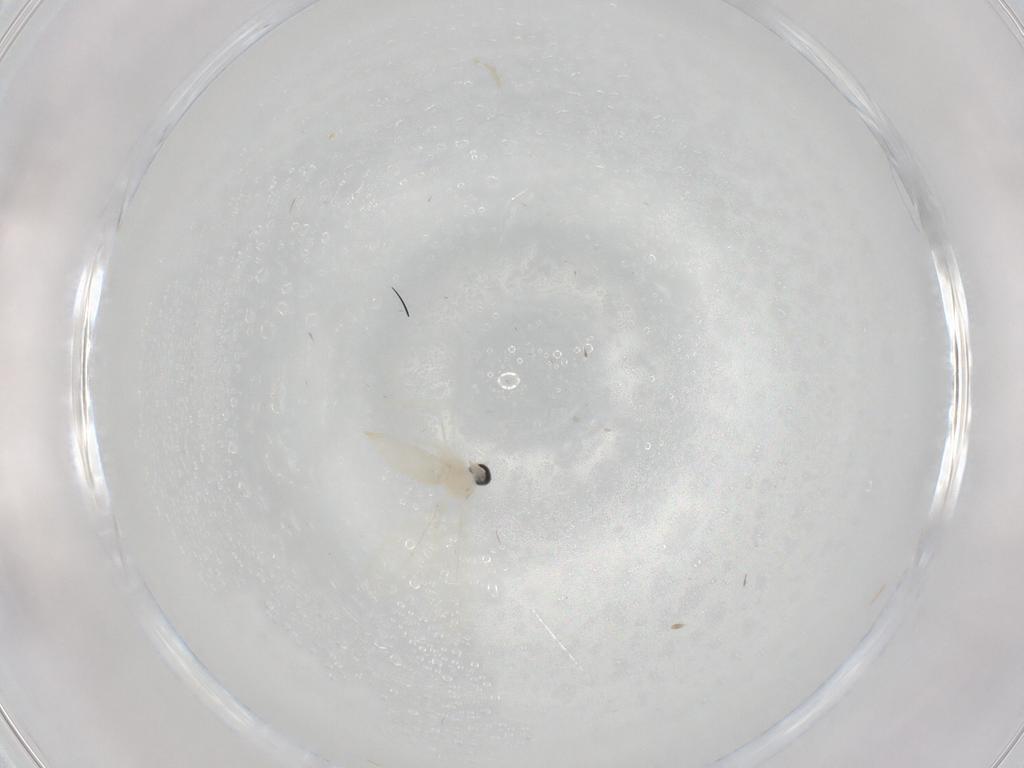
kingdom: Animalia
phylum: Arthropoda
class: Insecta
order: Diptera
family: Cecidomyiidae
